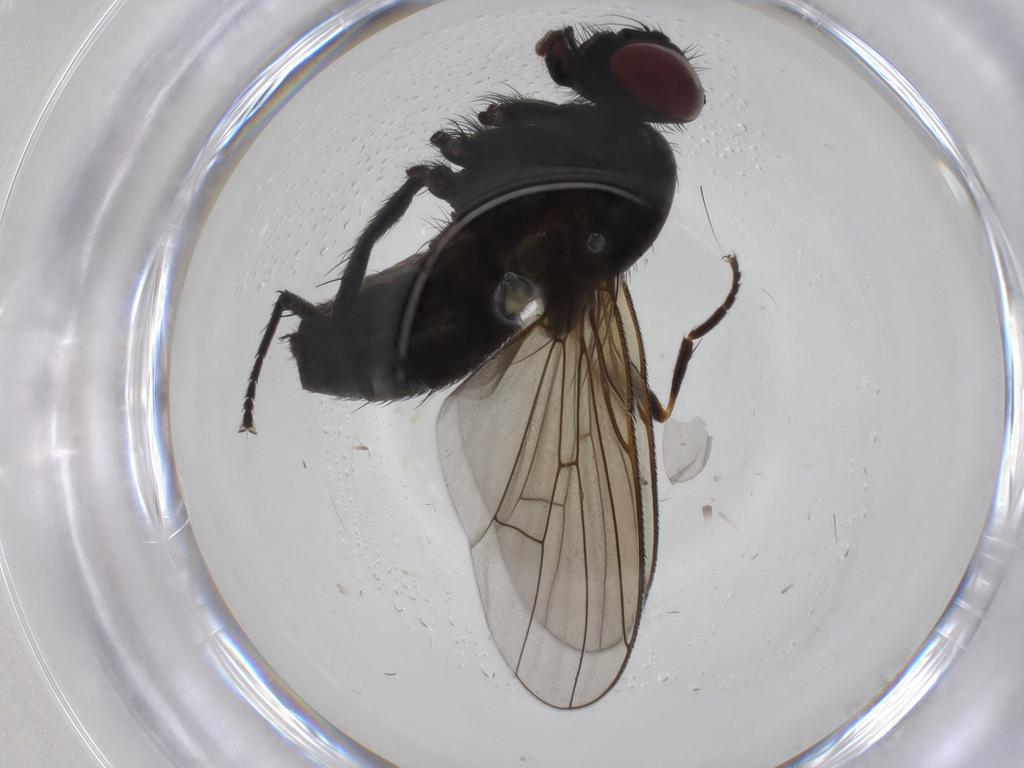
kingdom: Animalia
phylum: Arthropoda
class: Insecta
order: Diptera
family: Muscidae
